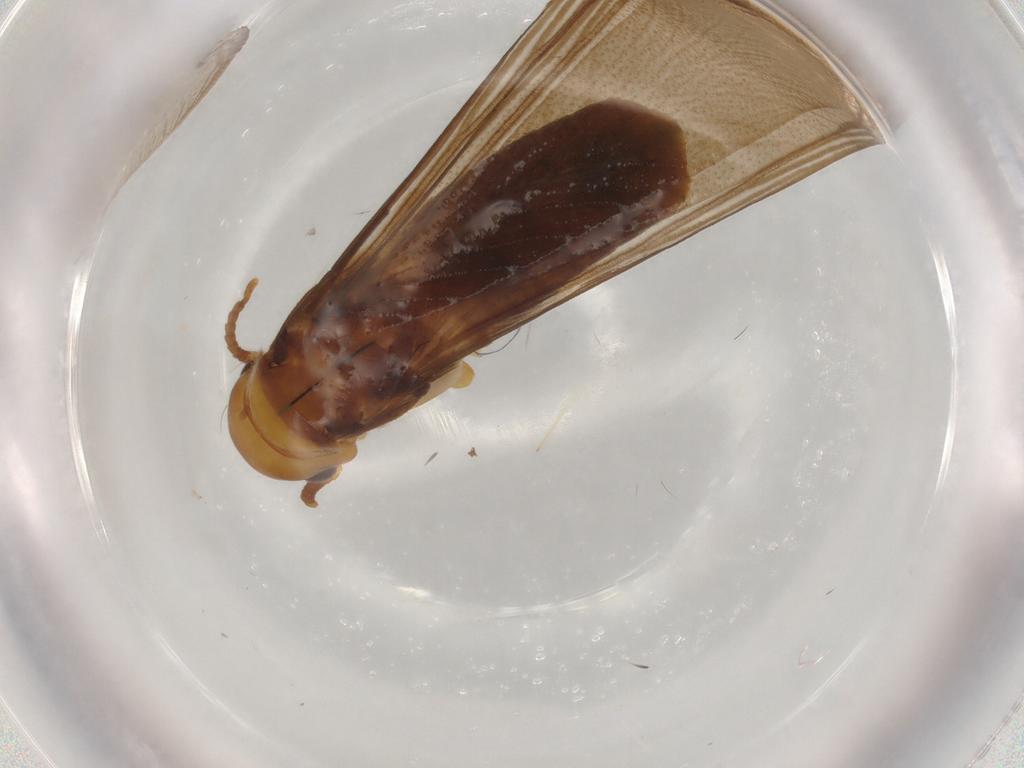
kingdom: Animalia
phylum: Arthropoda
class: Insecta
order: Blattodea
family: Kalotermitidae
